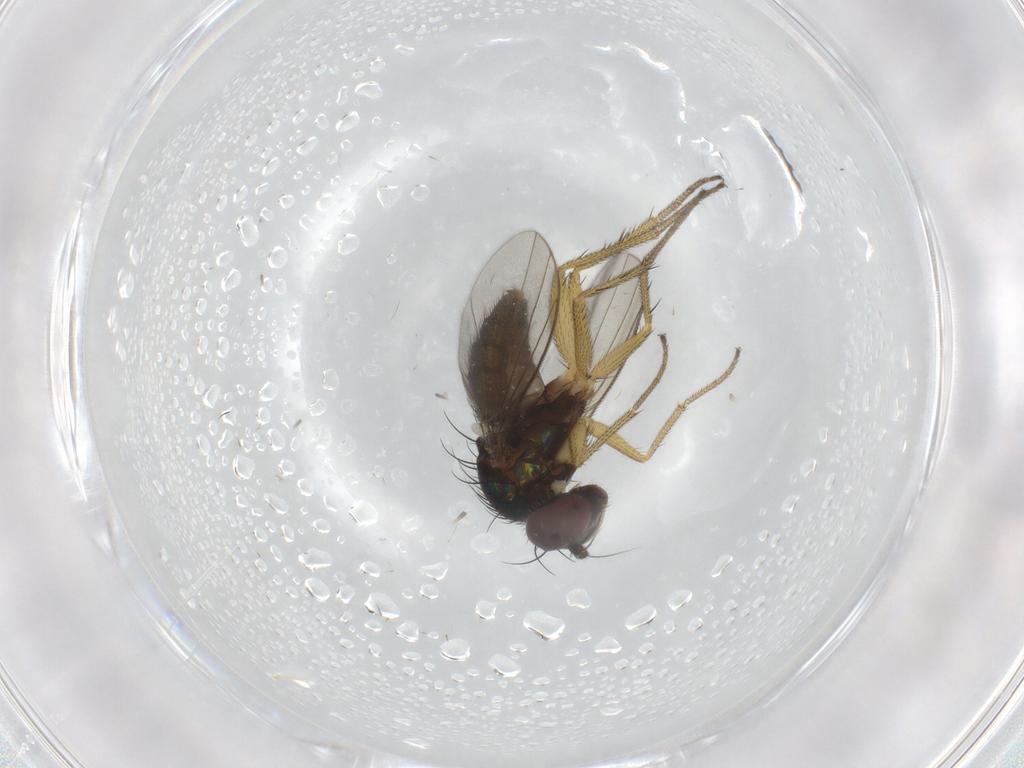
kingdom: Animalia
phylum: Arthropoda
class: Insecta
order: Diptera
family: Dolichopodidae
